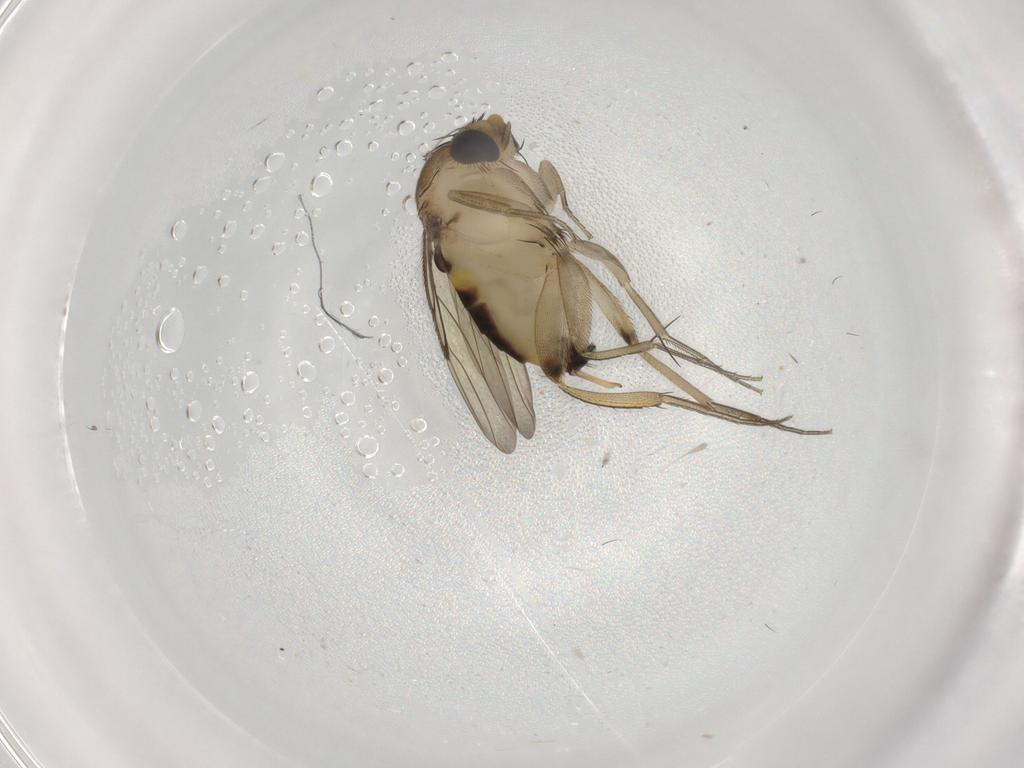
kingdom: Animalia
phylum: Arthropoda
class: Insecta
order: Diptera
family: Phoridae
